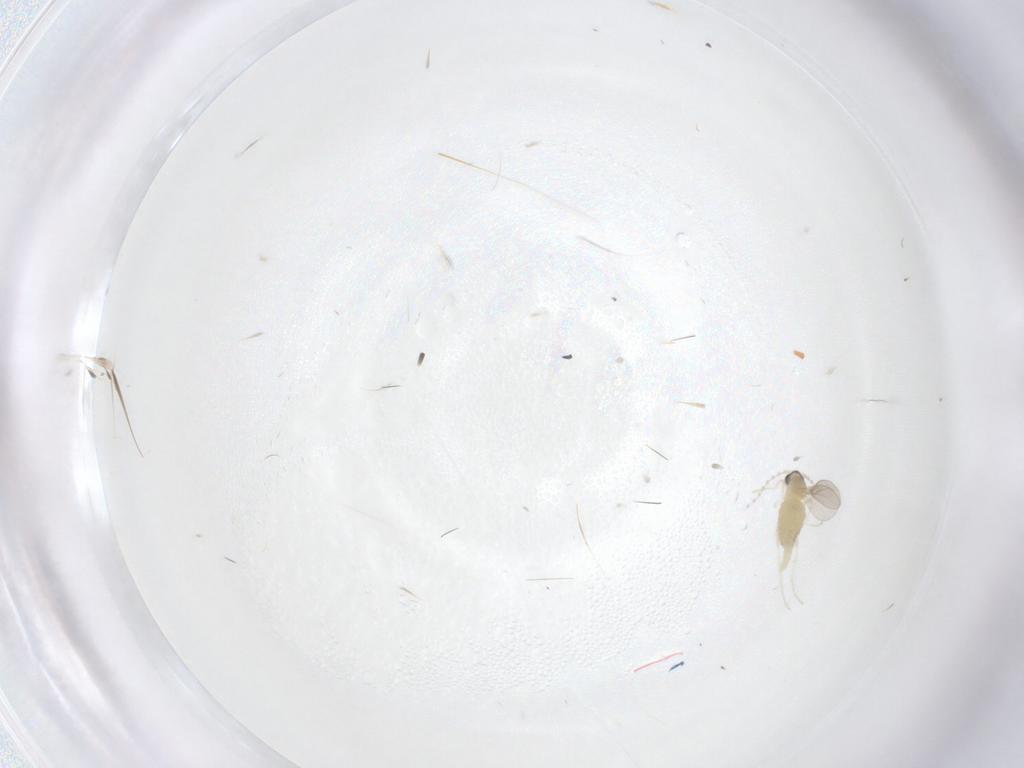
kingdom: Animalia
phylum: Arthropoda
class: Insecta
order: Diptera
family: Cecidomyiidae
